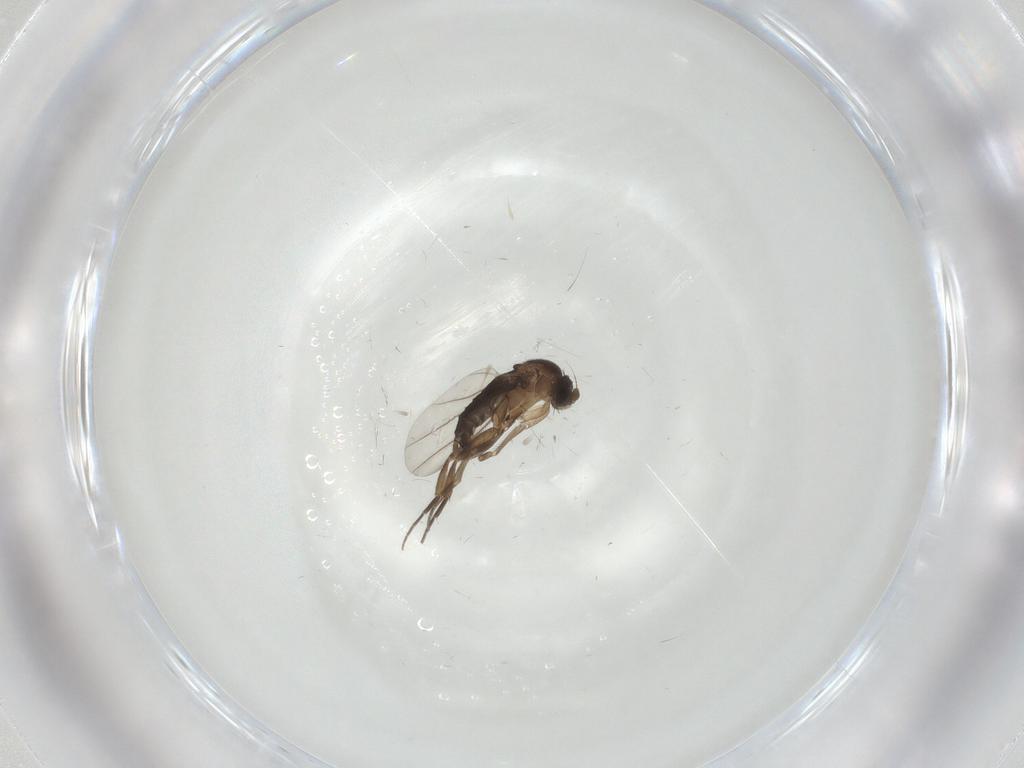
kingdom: Animalia
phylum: Arthropoda
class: Insecta
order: Diptera
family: Phoridae
